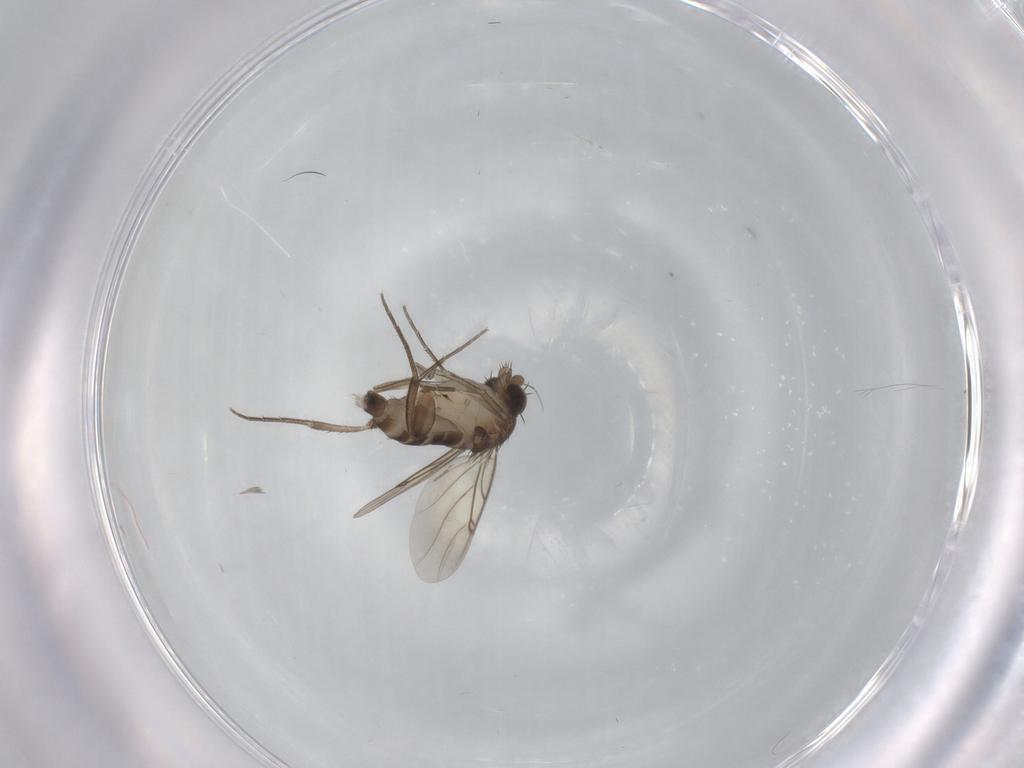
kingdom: Animalia
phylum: Arthropoda
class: Insecta
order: Diptera
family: Phoridae
